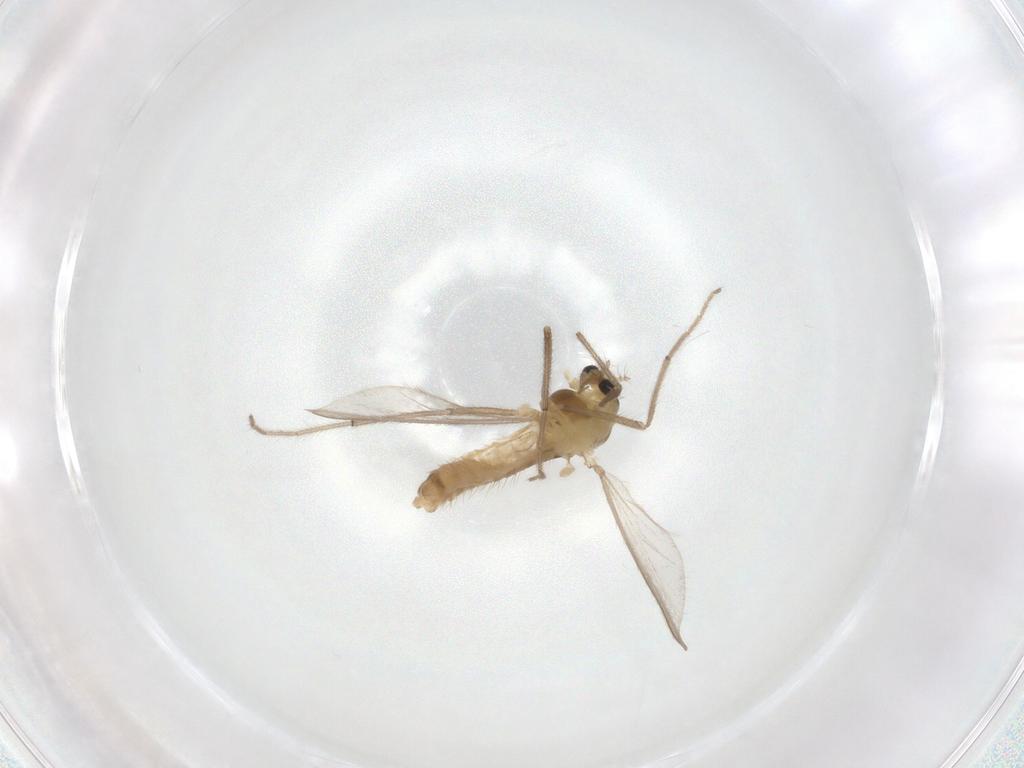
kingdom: Animalia
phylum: Arthropoda
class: Insecta
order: Diptera
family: Chironomidae
